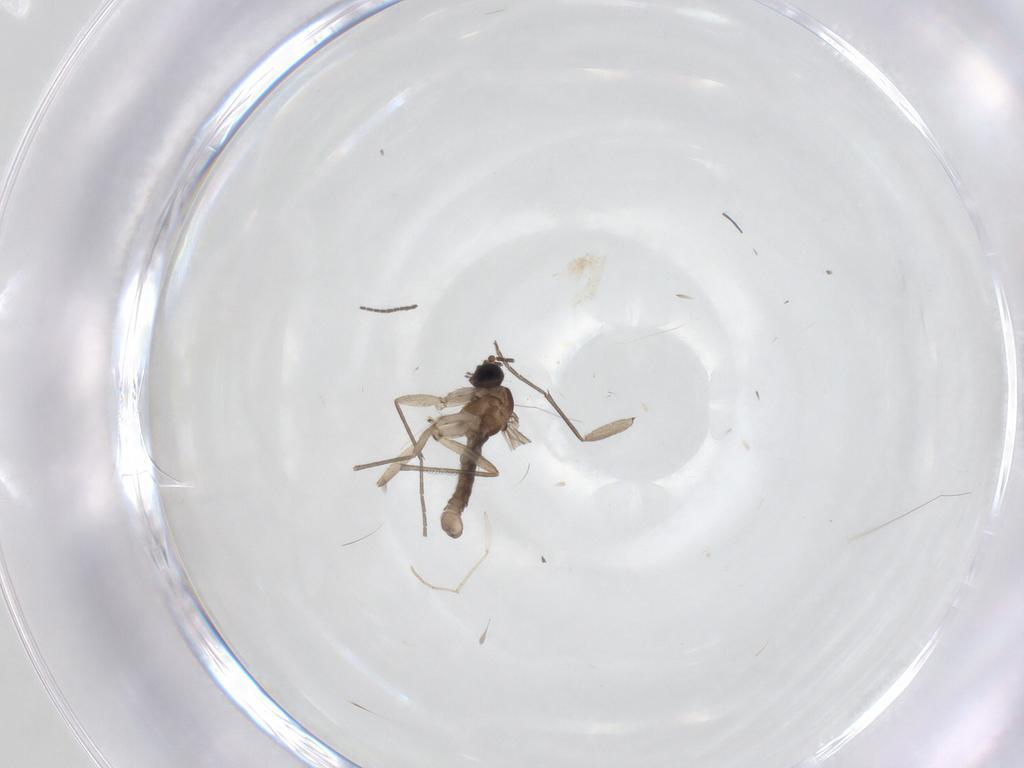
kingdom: Animalia
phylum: Arthropoda
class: Insecta
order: Diptera
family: Sciaridae
